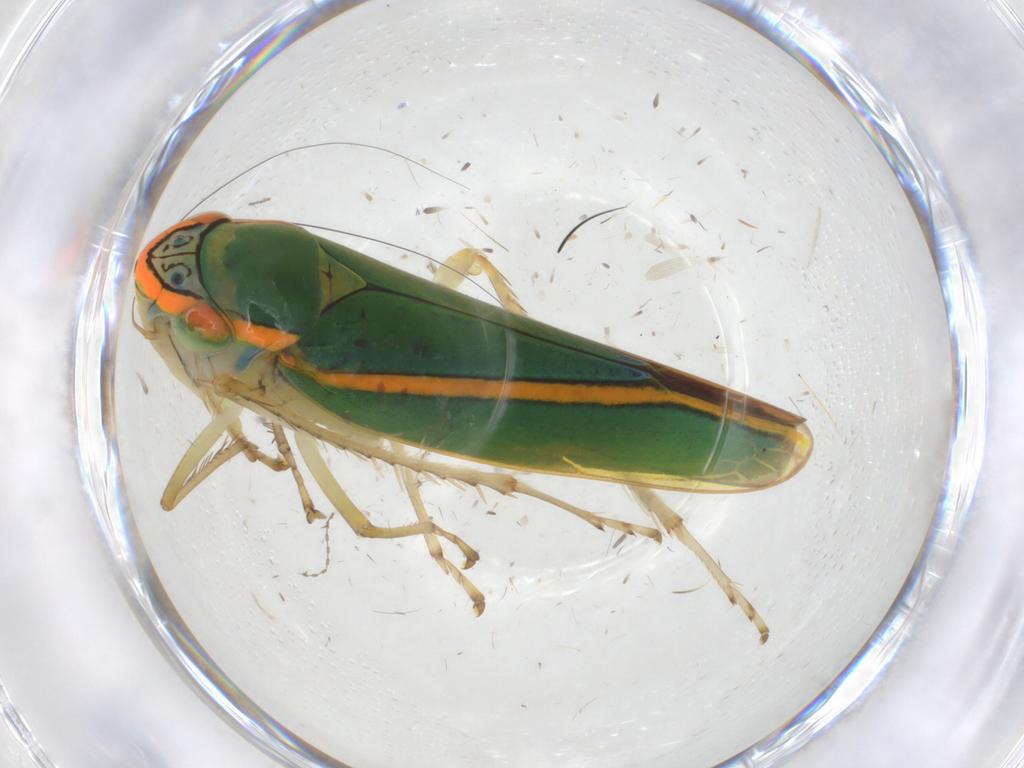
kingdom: Animalia
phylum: Arthropoda
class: Insecta
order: Hemiptera
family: Cicadellidae
